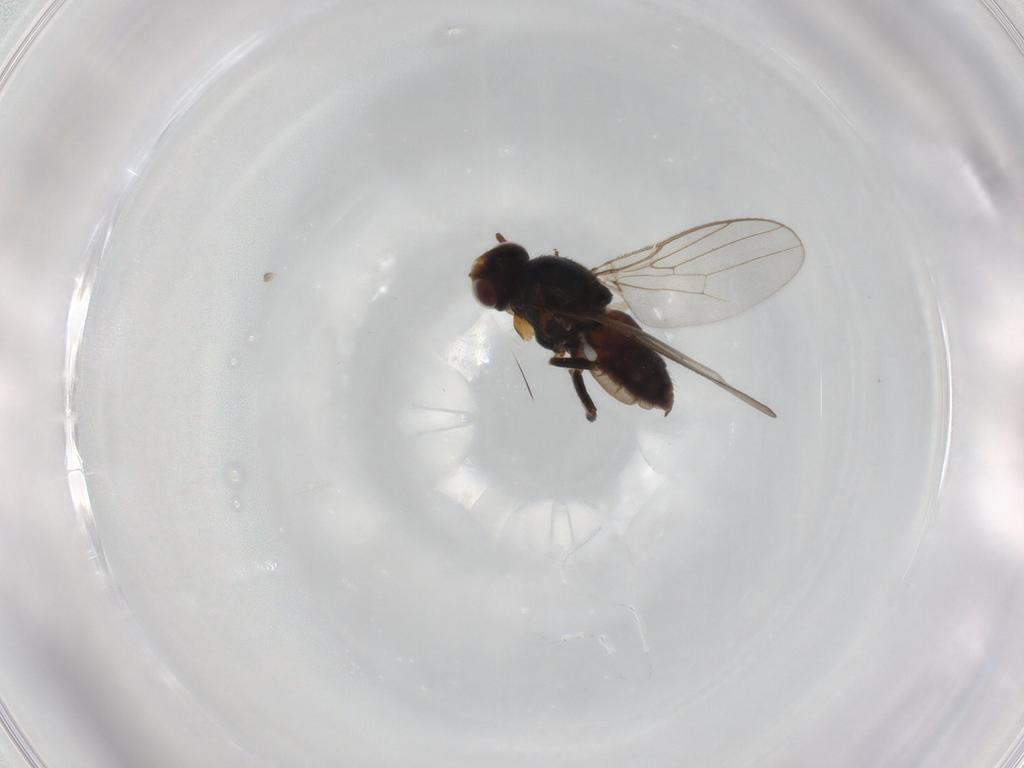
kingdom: Animalia
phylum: Arthropoda
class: Insecta
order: Diptera
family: Chloropidae
